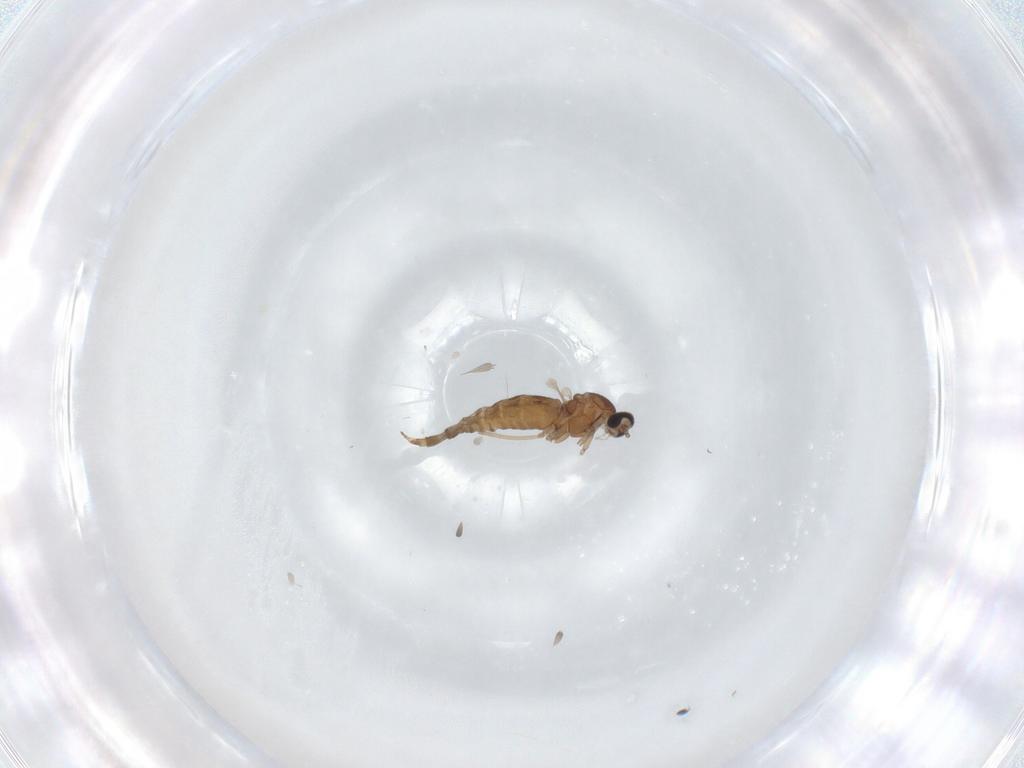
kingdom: Animalia
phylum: Arthropoda
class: Insecta
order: Diptera
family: Cecidomyiidae
